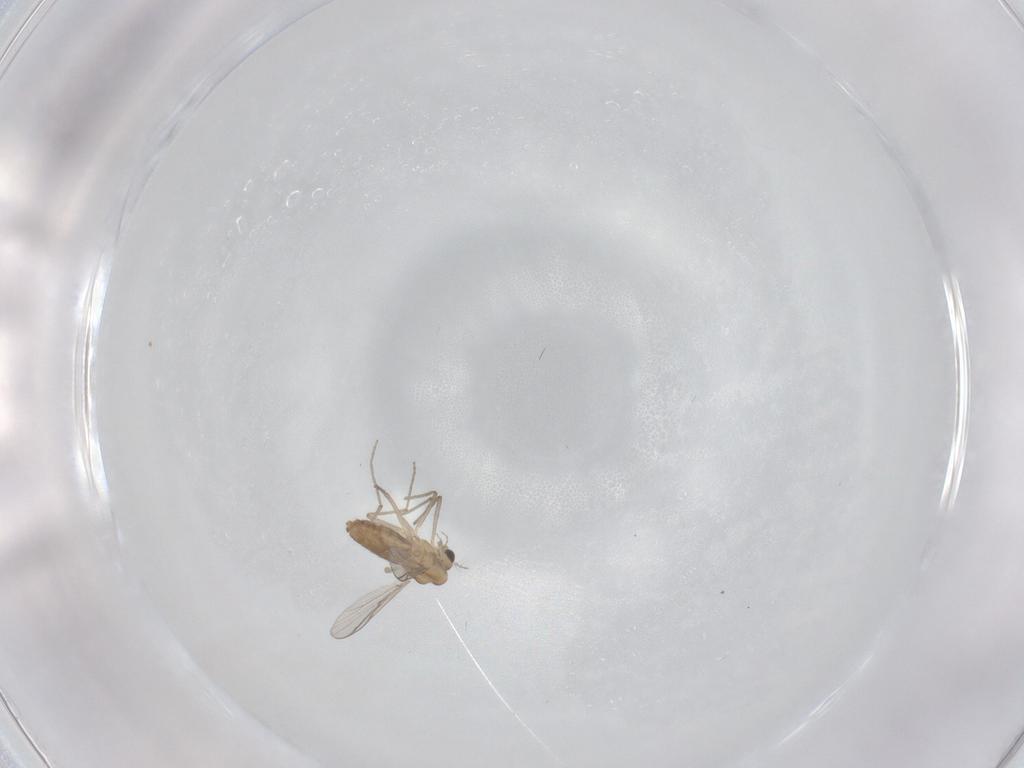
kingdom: Animalia
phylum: Arthropoda
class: Insecta
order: Diptera
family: Chironomidae
